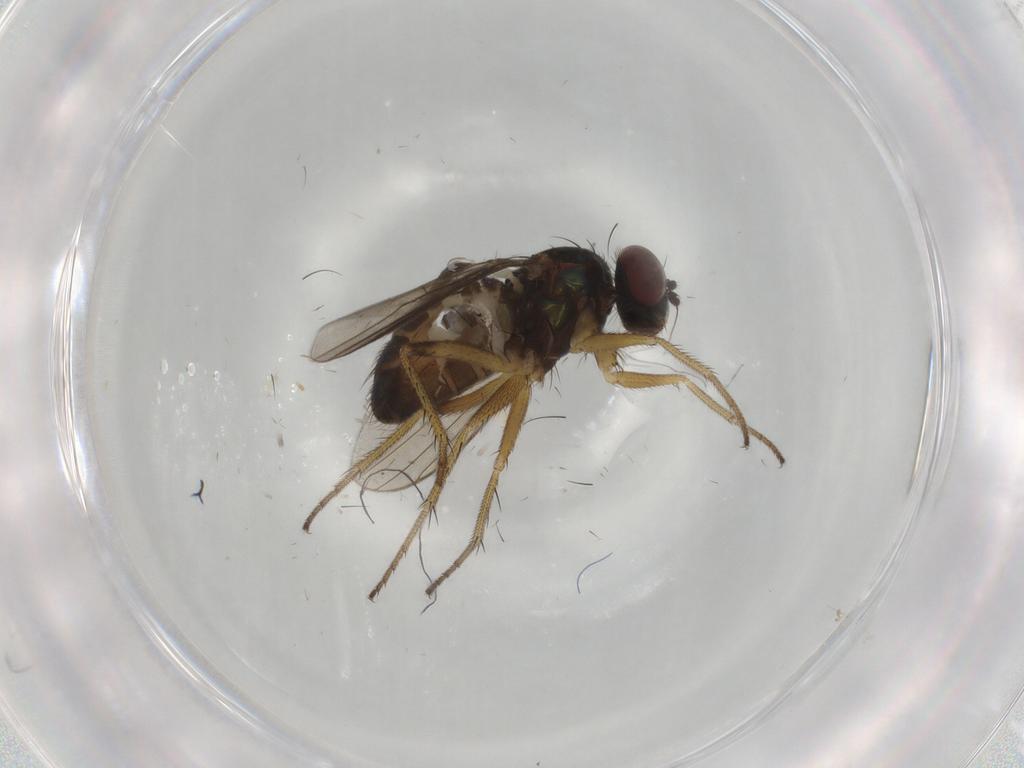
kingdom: Animalia
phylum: Arthropoda
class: Insecta
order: Diptera
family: Dolichopodidae
